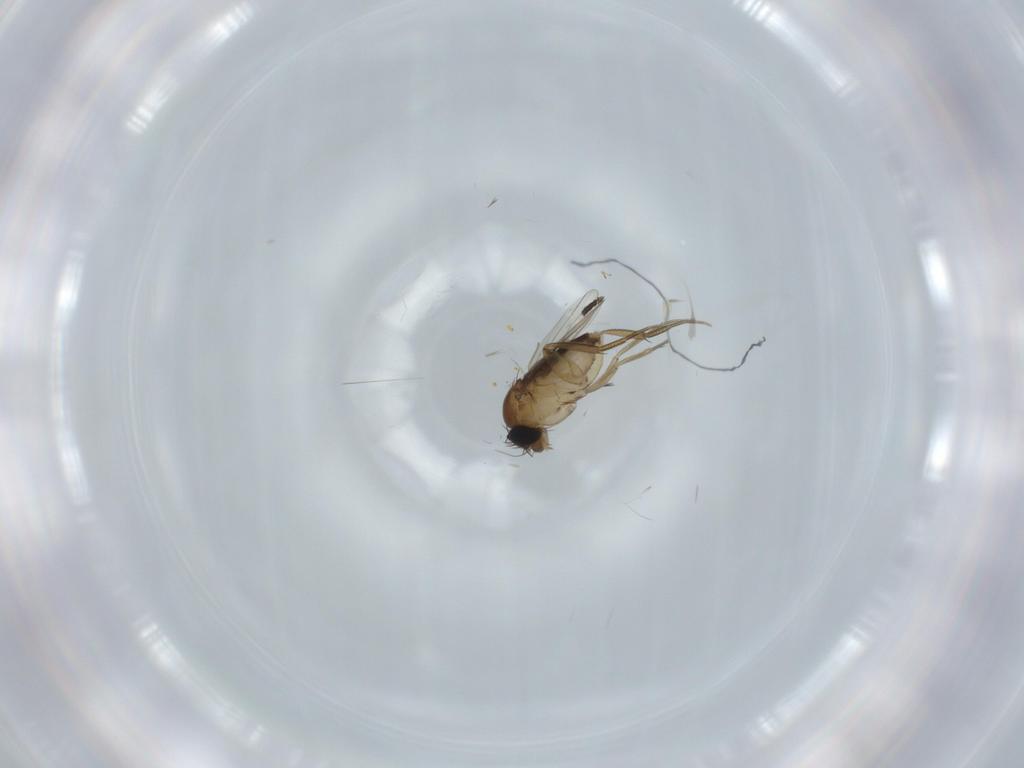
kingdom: Animalia
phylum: Arthropoda
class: Insecta
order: Diptera
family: Phoridae
